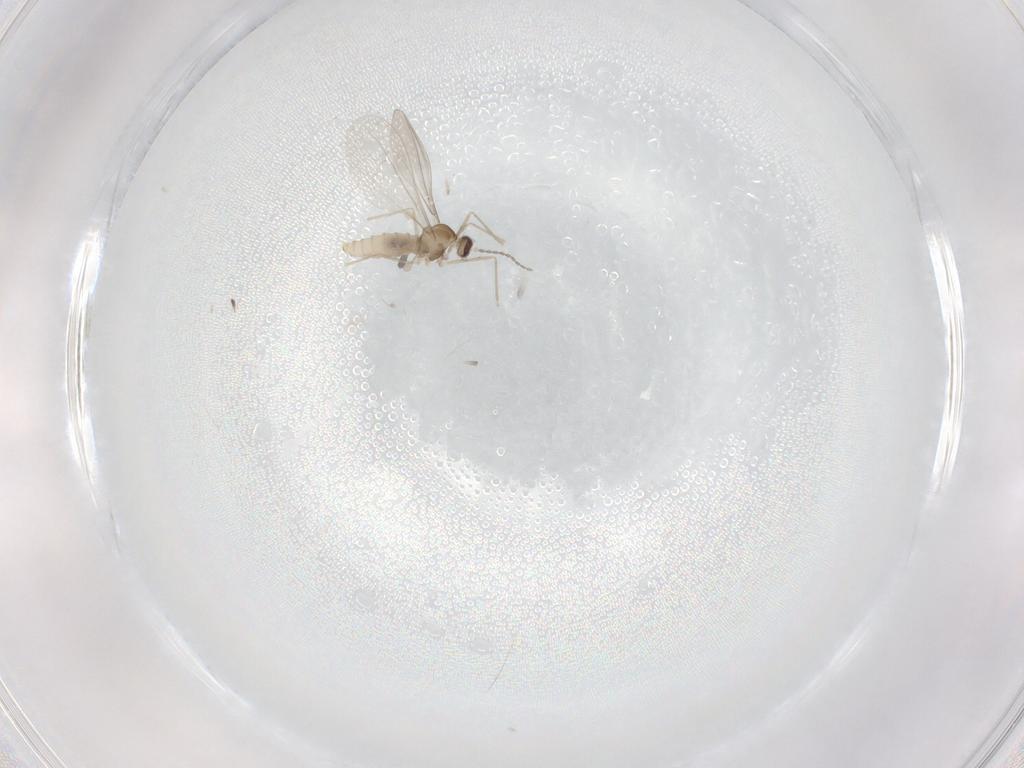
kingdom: Animalia
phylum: Arthropoda
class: Insecta
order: Diptera
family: Cecidomyiidae
